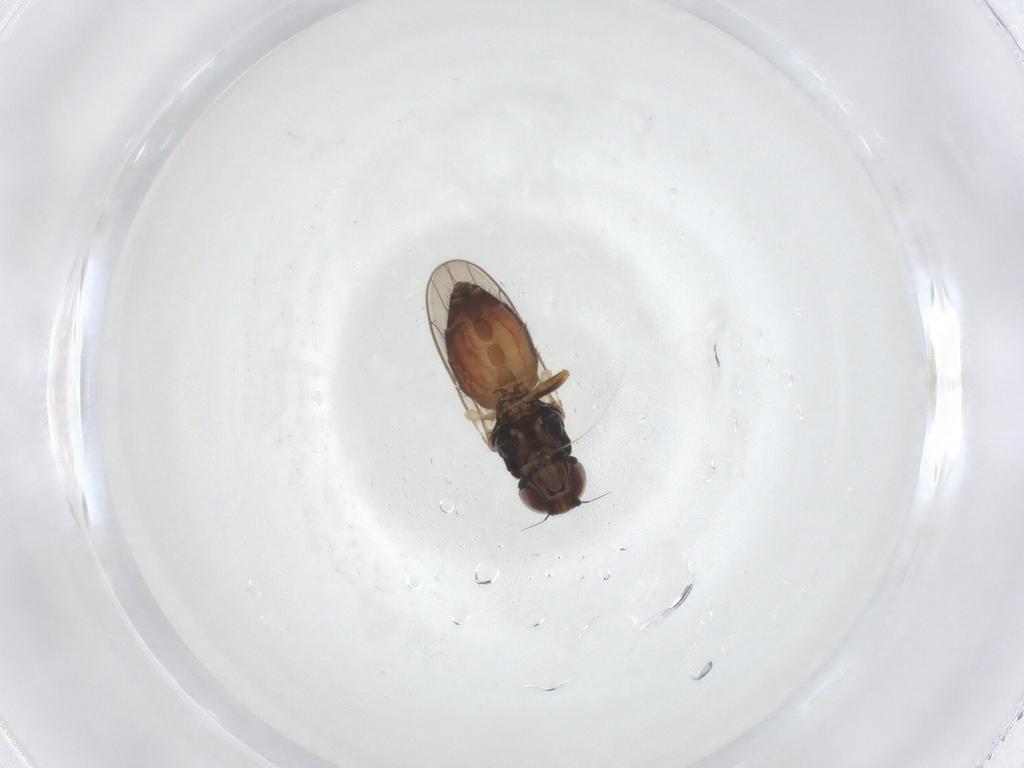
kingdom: Animalia
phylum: Arthropoda
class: Insecta
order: Diptera
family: Chloropidae
